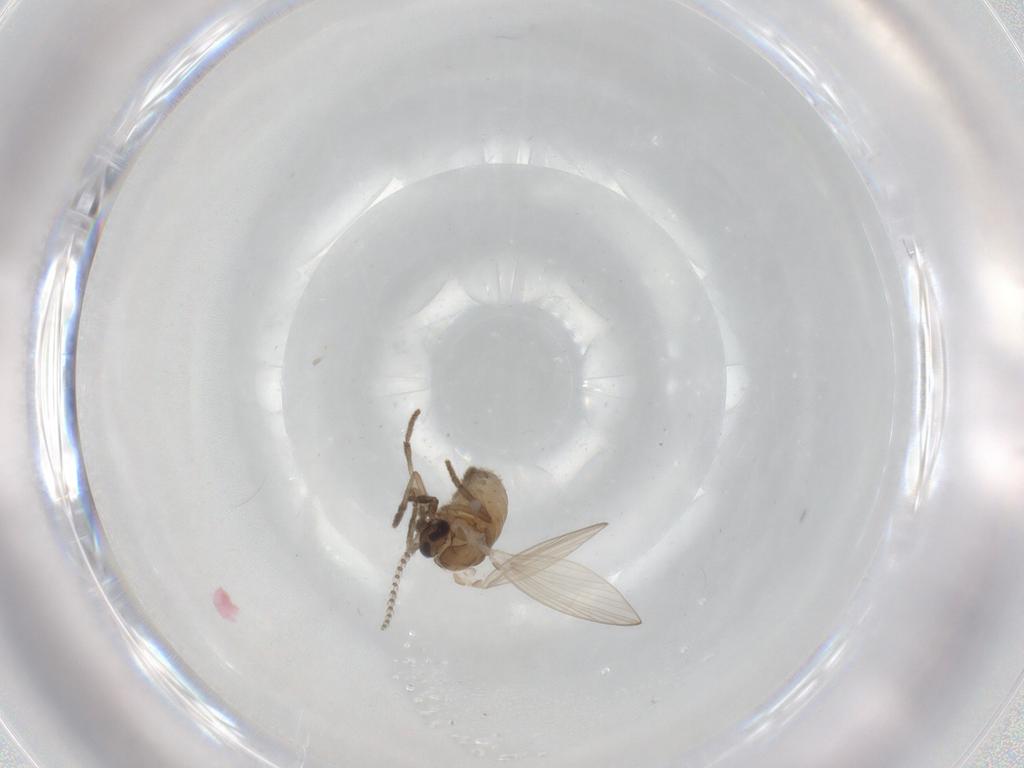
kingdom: Animalia
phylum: Arthropoda
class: Insecta
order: Diptera
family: Psychodidae
